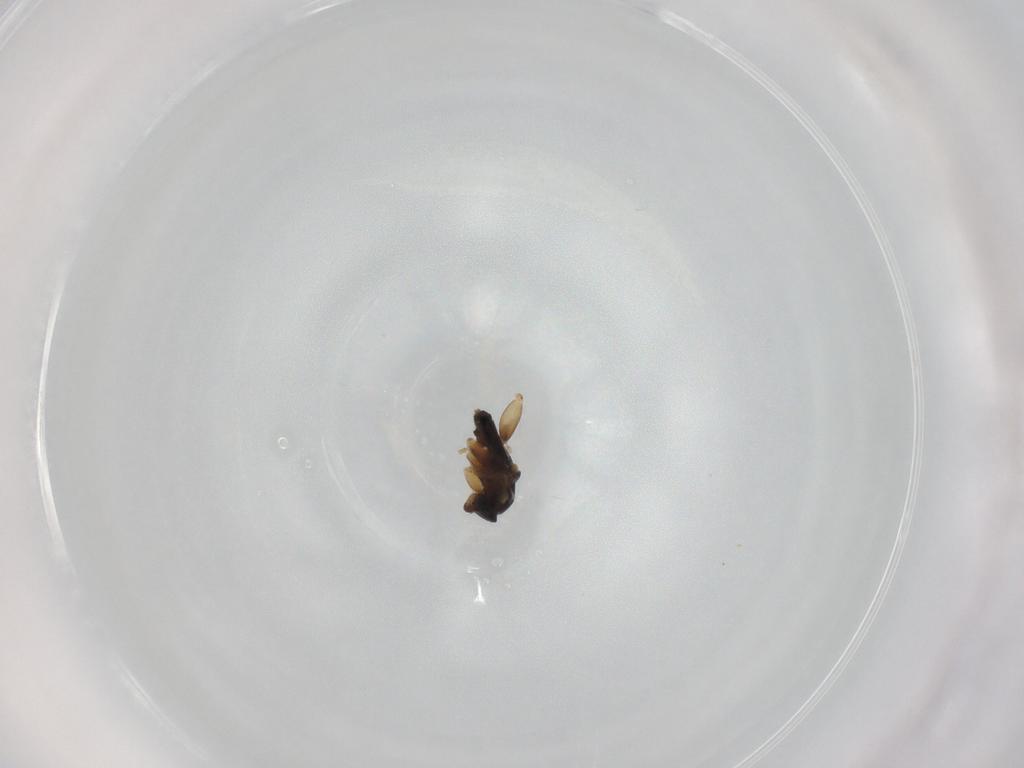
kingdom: Animalia
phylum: Arthropoda
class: Insecta
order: Diptera
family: Phoridae
